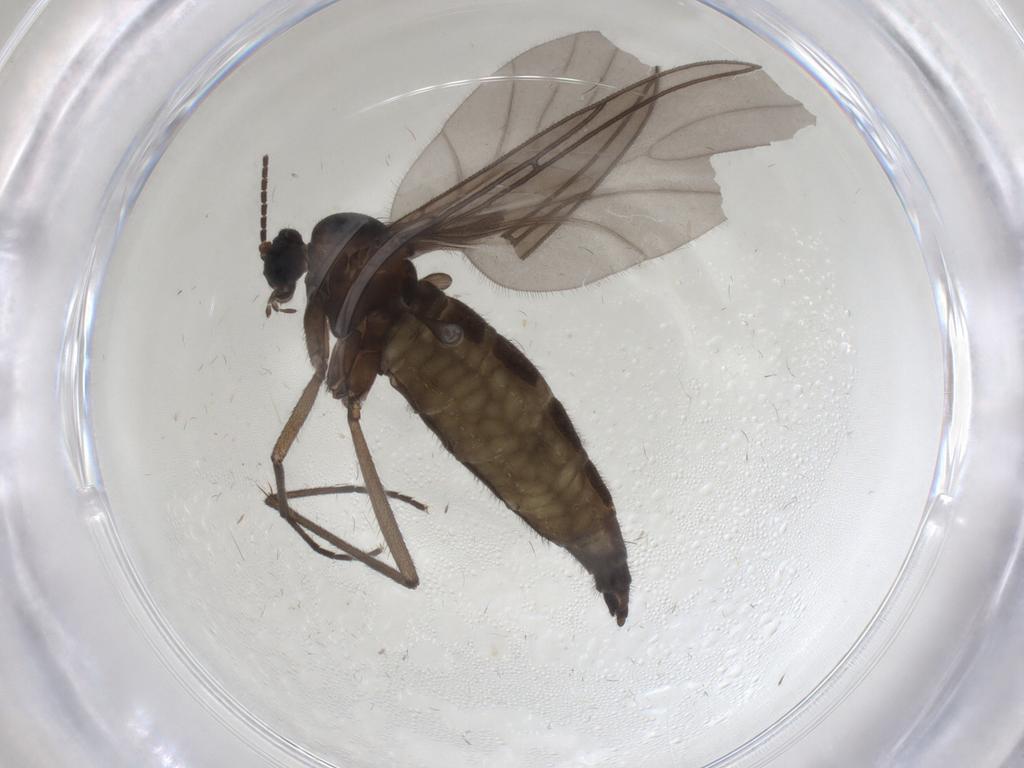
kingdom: Animalia
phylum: Arthropoda
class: Insecta
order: Diptera
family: Sciaridae
